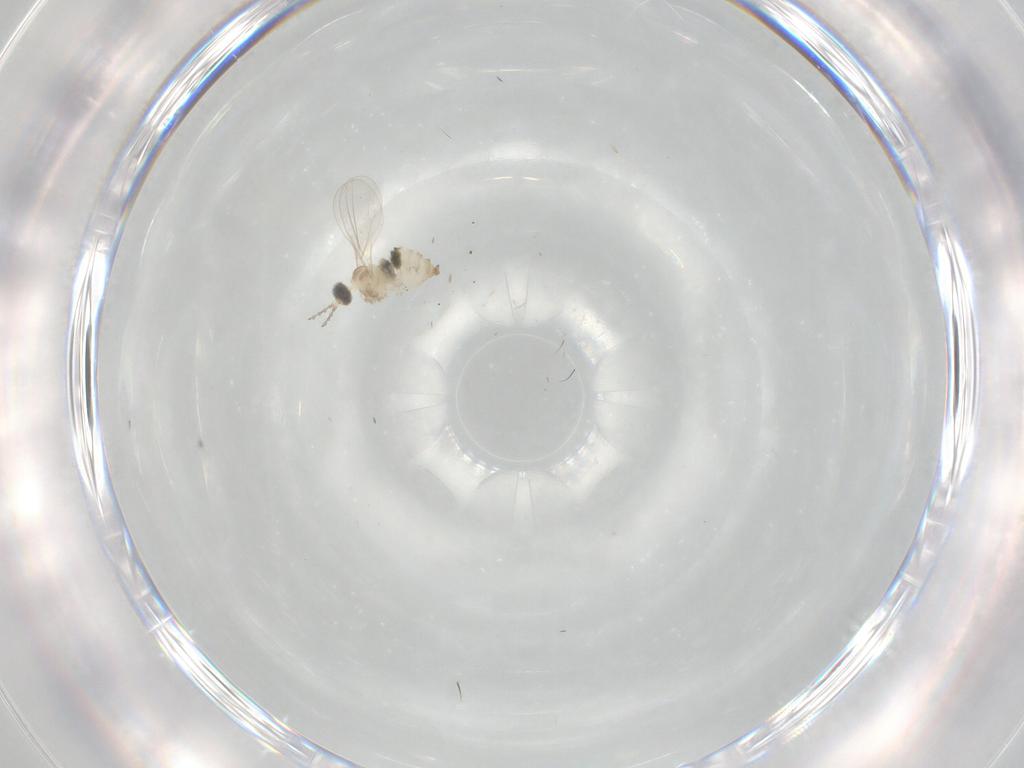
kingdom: Animalia
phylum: Arthropoda
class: Insecta
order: Diptera
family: Cecidomyiidae
